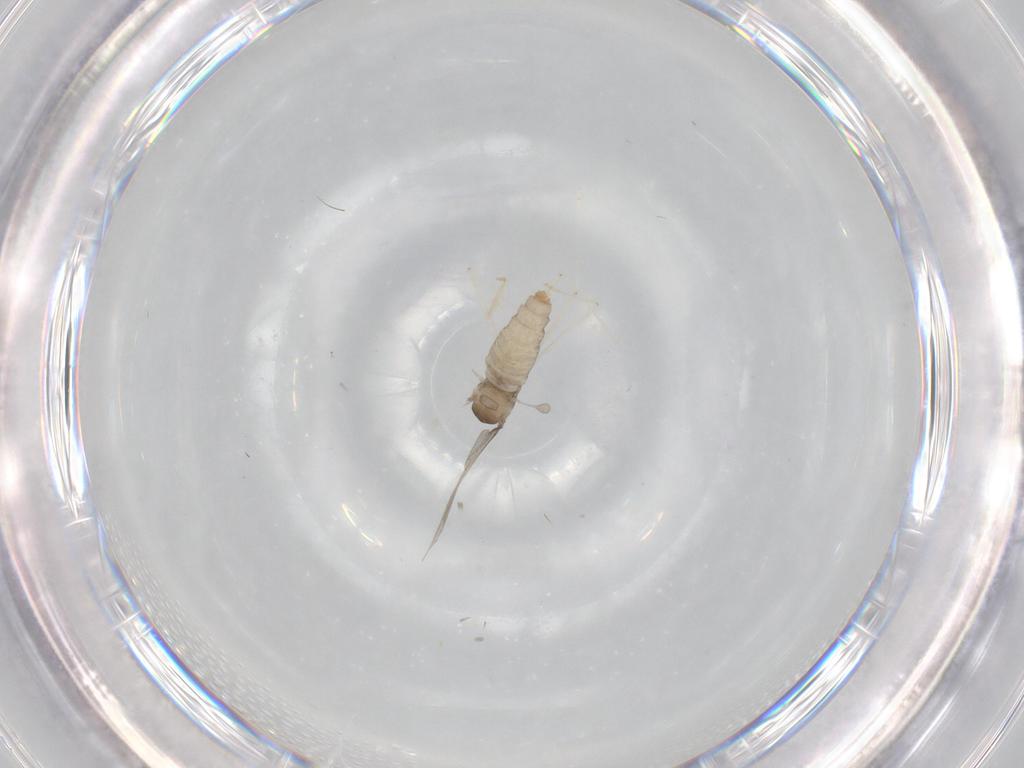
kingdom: Animalia
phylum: Arthropoda
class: Insecta
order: Diptera
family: Cecidomyiidae
